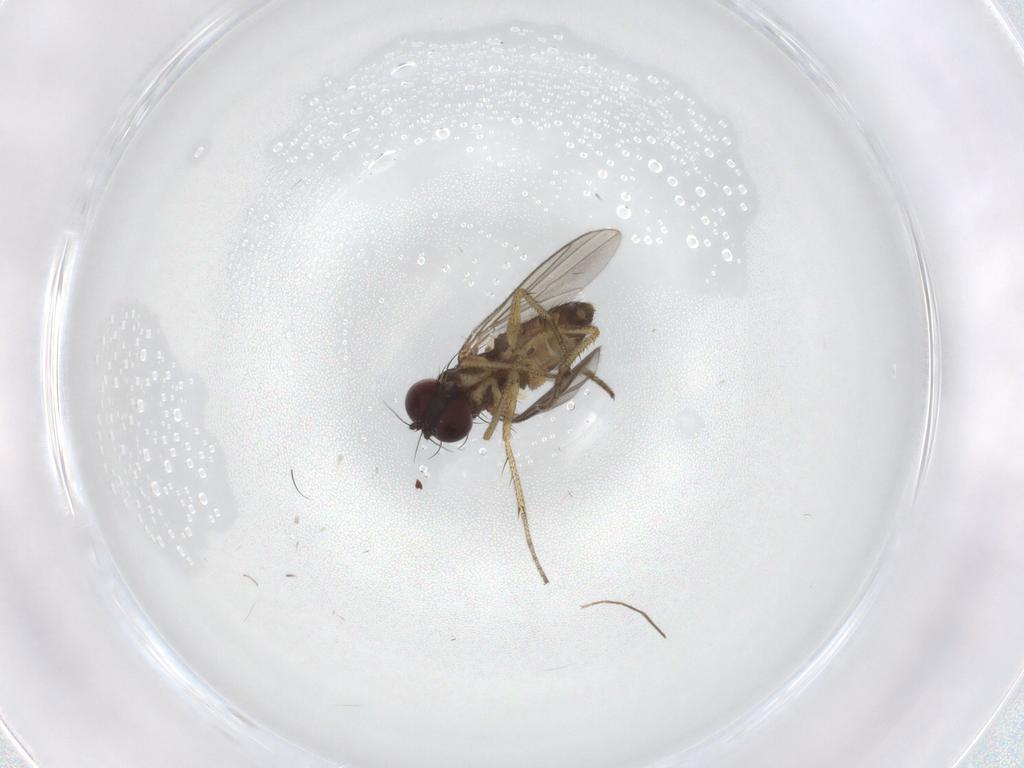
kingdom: Animalia
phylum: Arthropoda
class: Insecta
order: Diptera
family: Chironomidae
